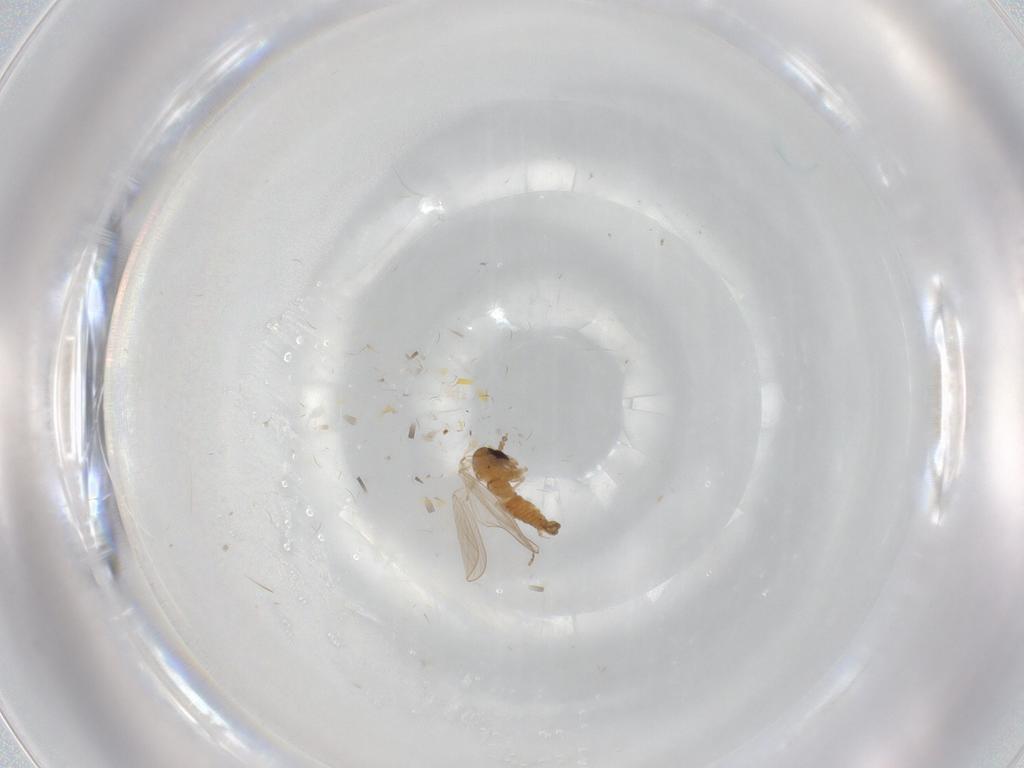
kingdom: Animalia
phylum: Arthropoda
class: Insecta
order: Diptera
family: Psychodidae
